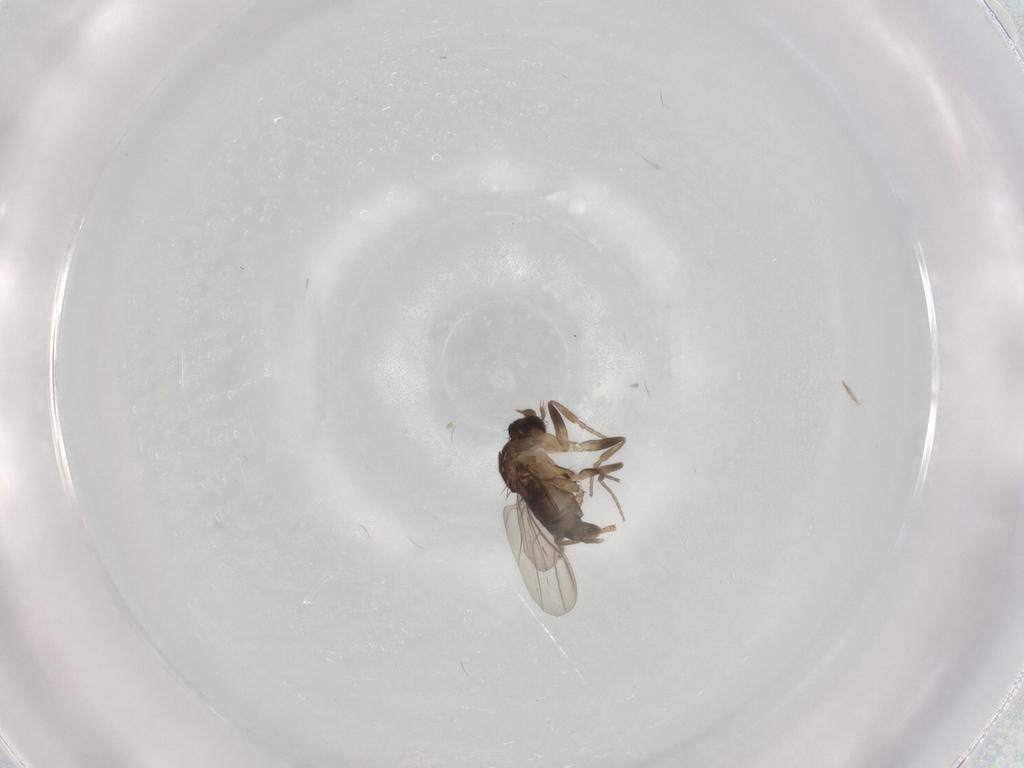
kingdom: Animalia
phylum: Arthropoda
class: Insecta
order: Diptera
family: Phoridae
